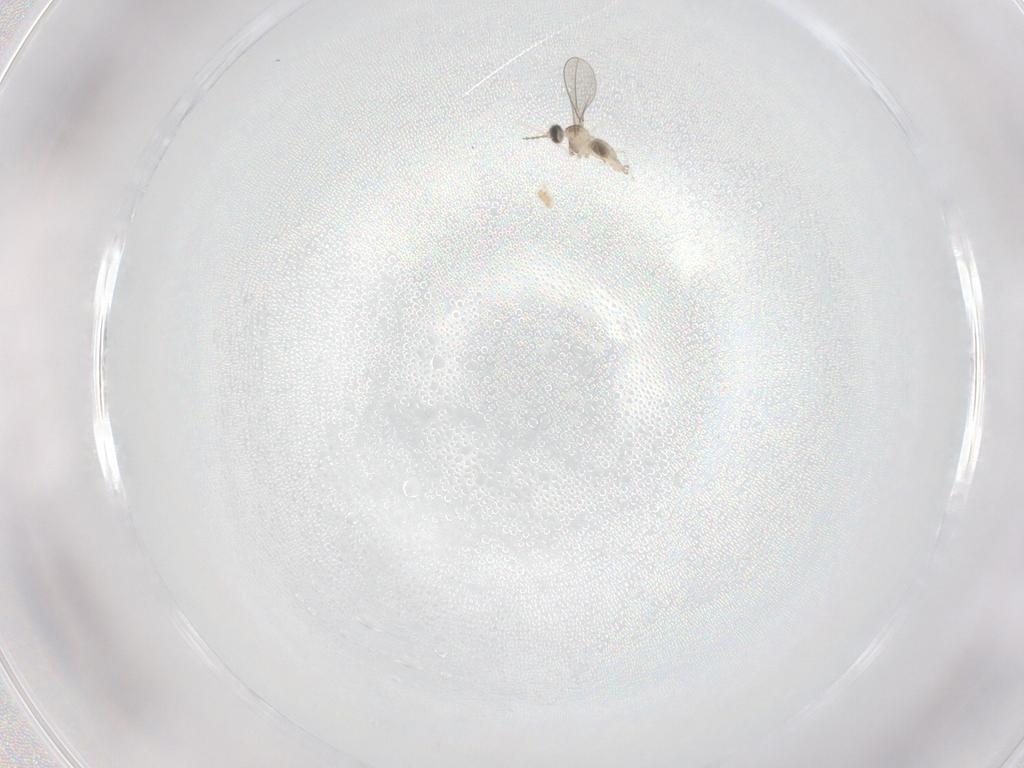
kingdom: Animalia
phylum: Arthropoda
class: Insecta
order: Diptera
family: Cecidomyiidae
